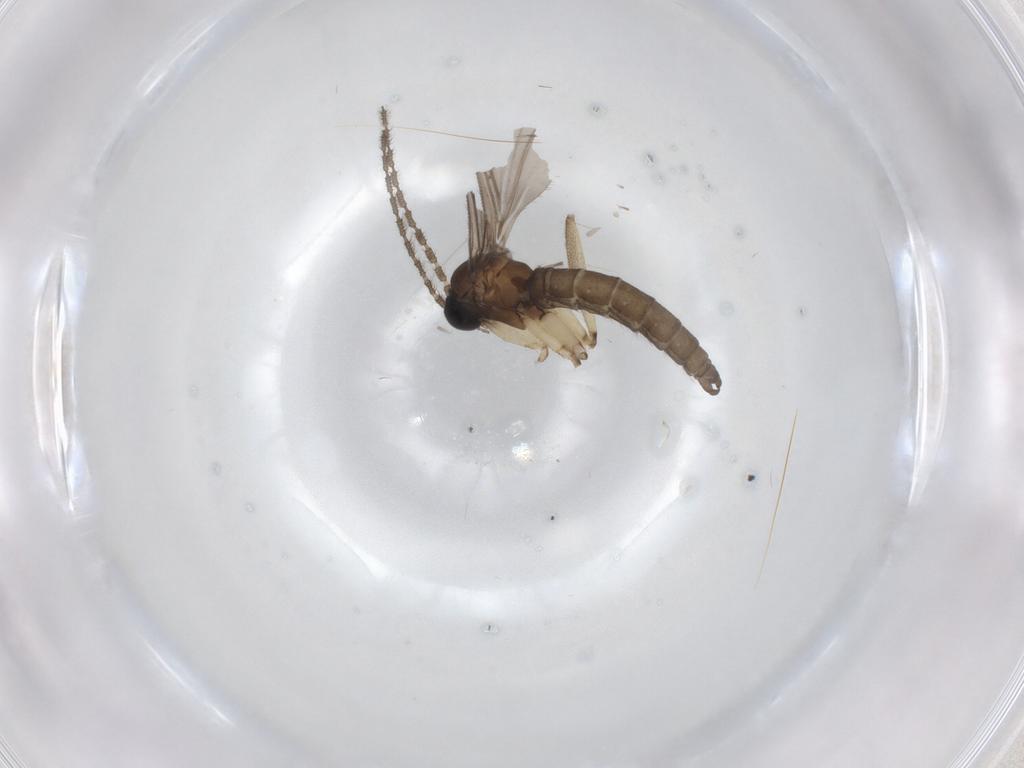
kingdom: Animalia
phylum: Arthropoda
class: Insecta
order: Diptera
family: Sciaridae
